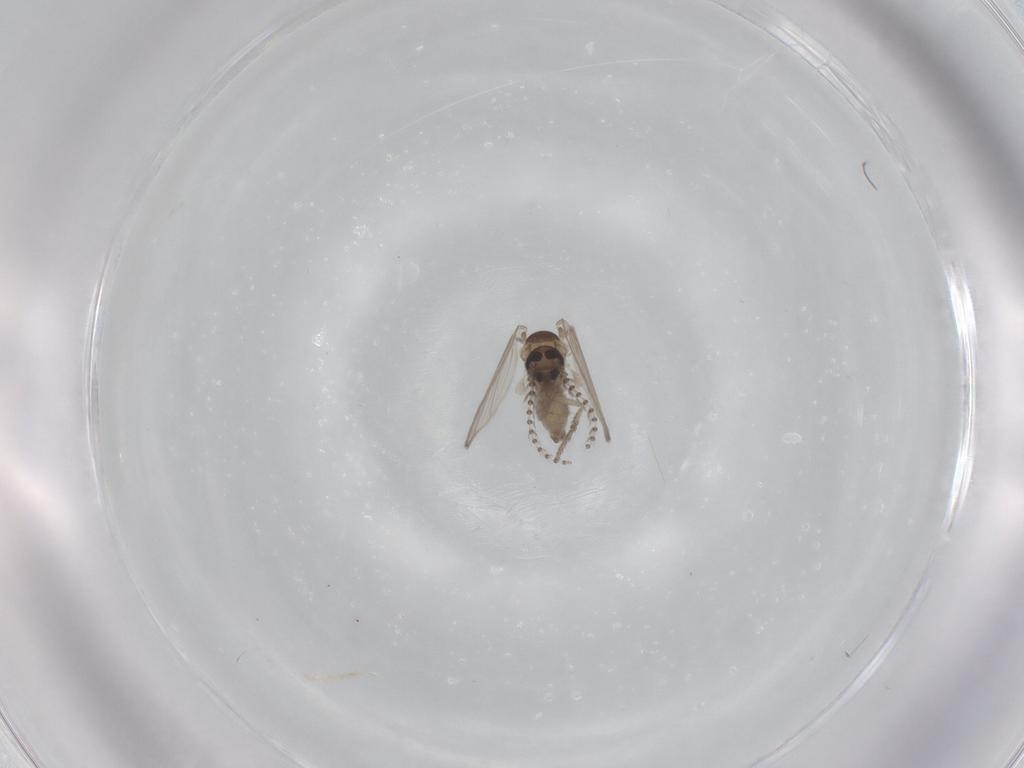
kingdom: Animalia
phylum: Arthropoda
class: Insecta
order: Diptera
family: Psychodidae
